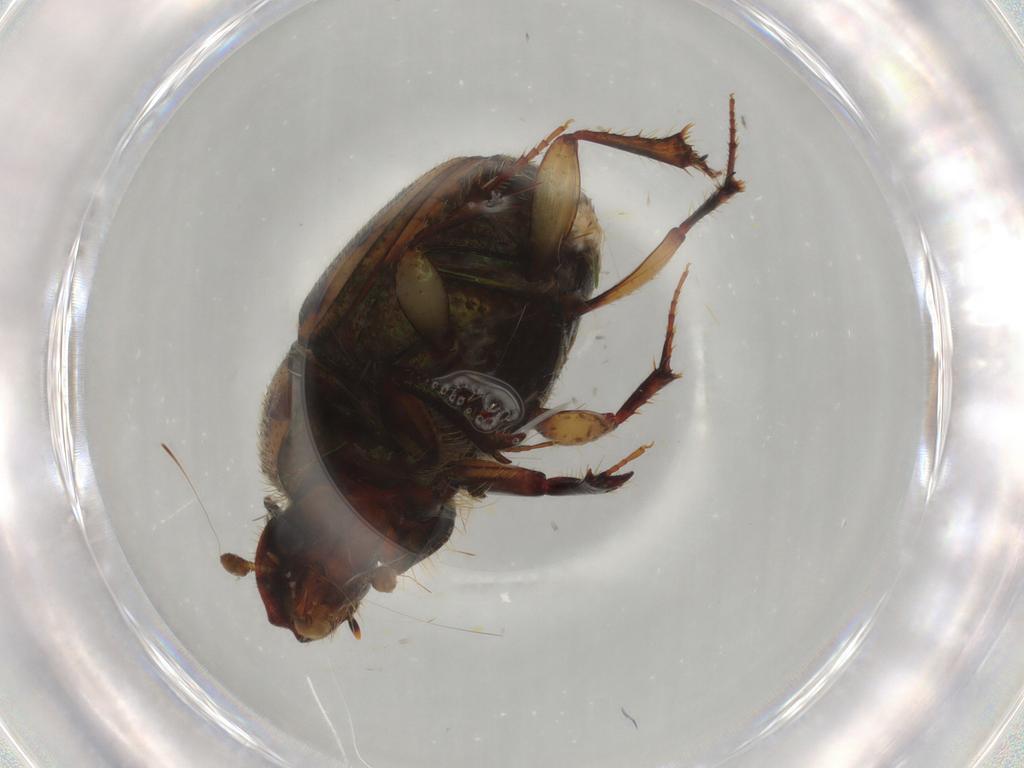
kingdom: Animalia
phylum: Arthropoda
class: Insecta
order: Coleoptera
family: Scarabaeidae
